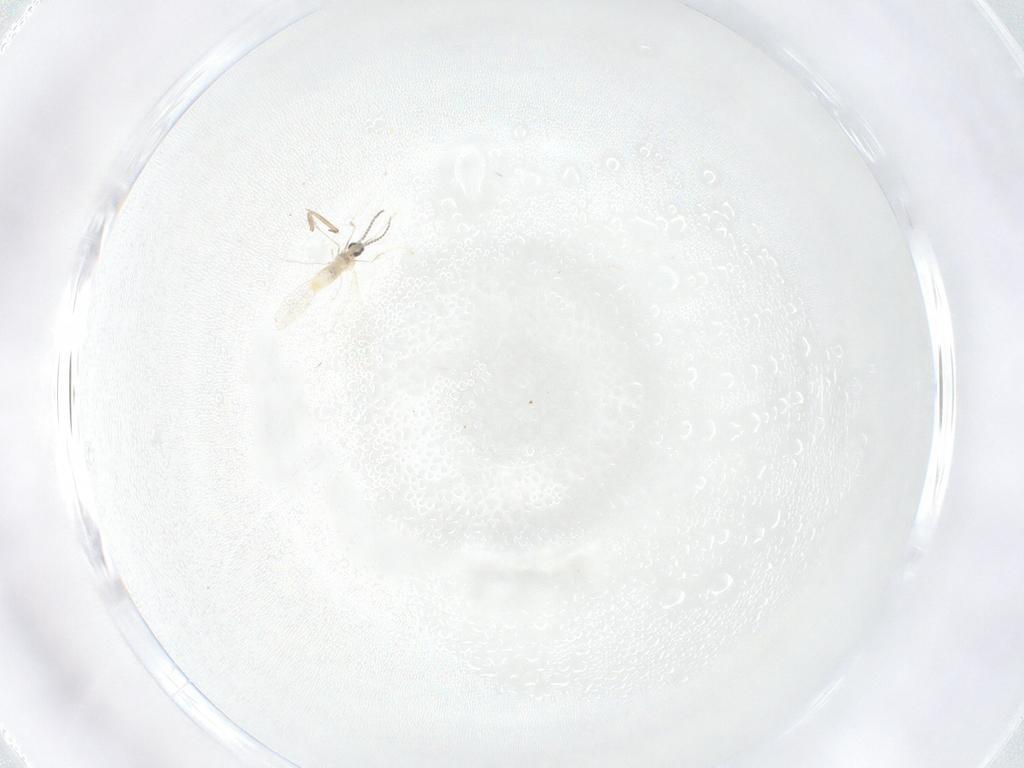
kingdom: Animalia
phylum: Arthropoda
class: Insecta
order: Diptera
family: Cecidomyiidae
